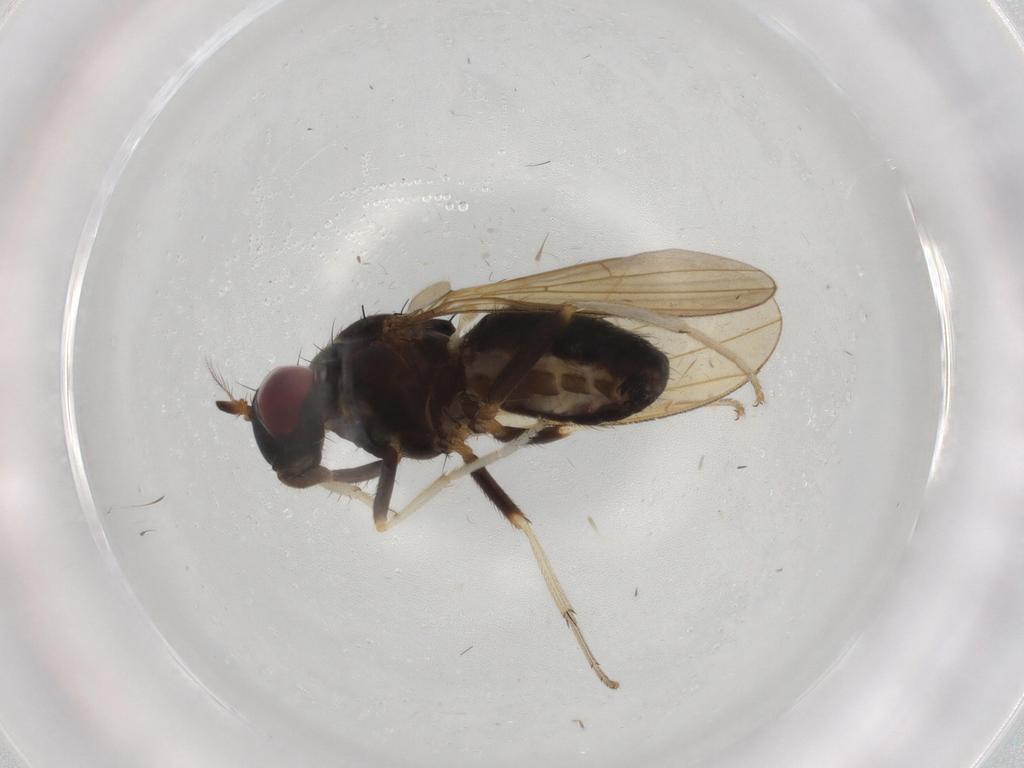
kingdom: Animalia
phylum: Arthropoda
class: Insecta
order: Diptera
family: Lauxaniidae
